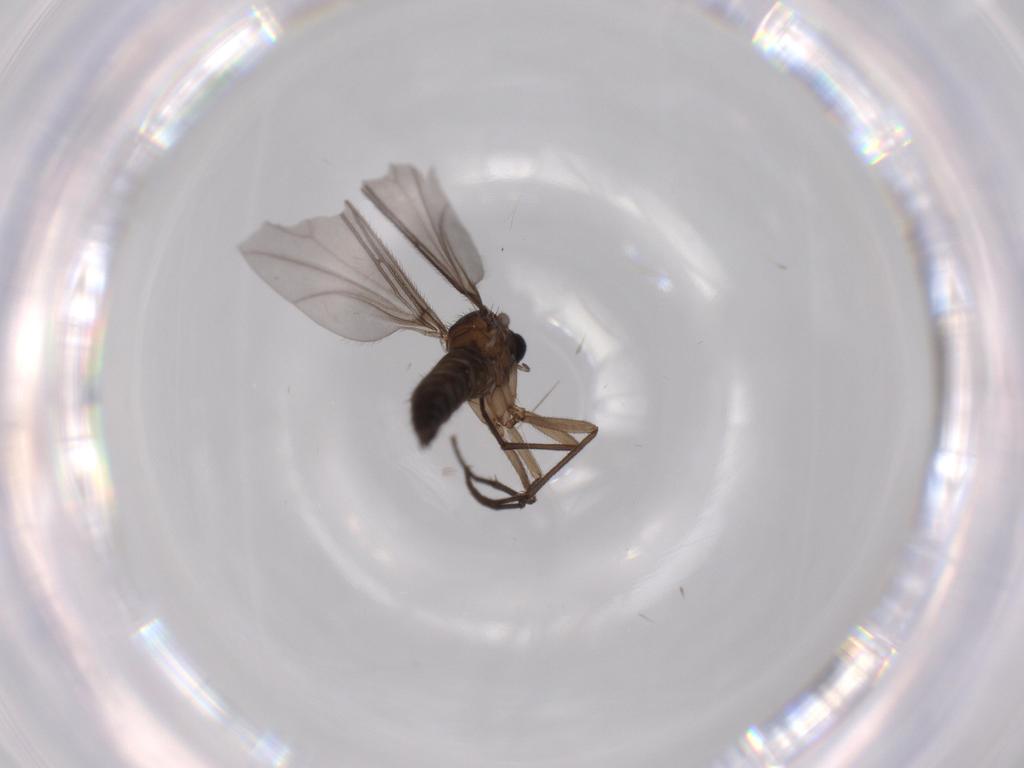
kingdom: Animalia
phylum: Arthropoda
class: Insecta
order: Diptera
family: Sciaridae
